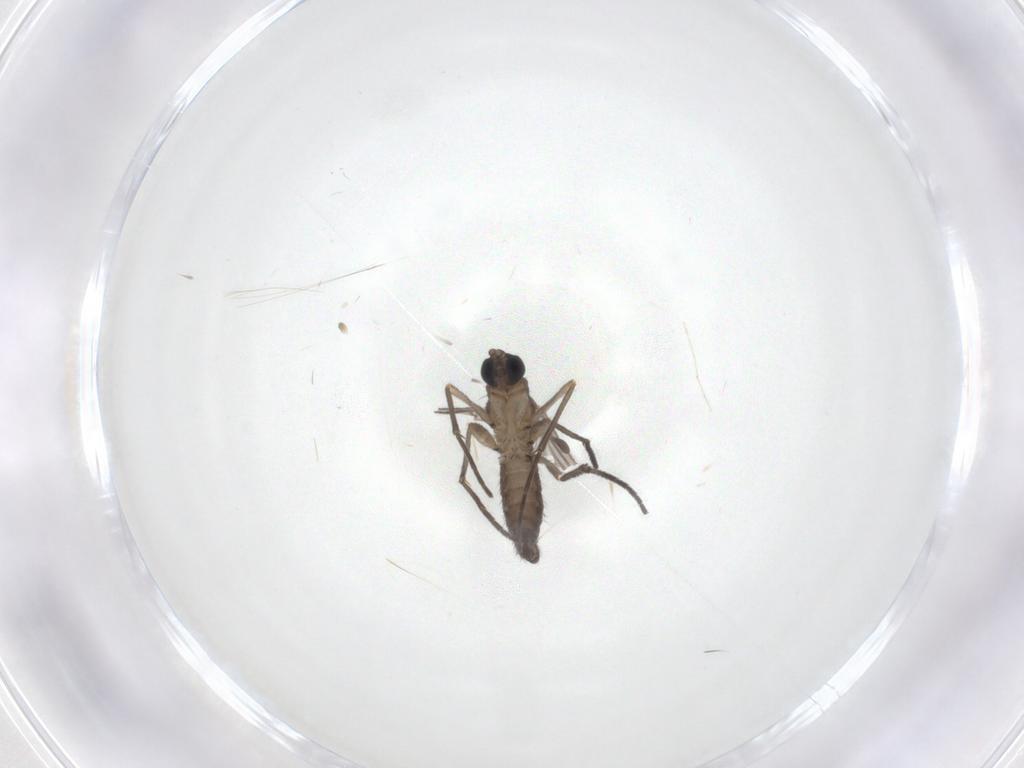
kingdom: Animalia
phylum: Arthropoda
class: Insecta
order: Diptera
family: Sciaridae
